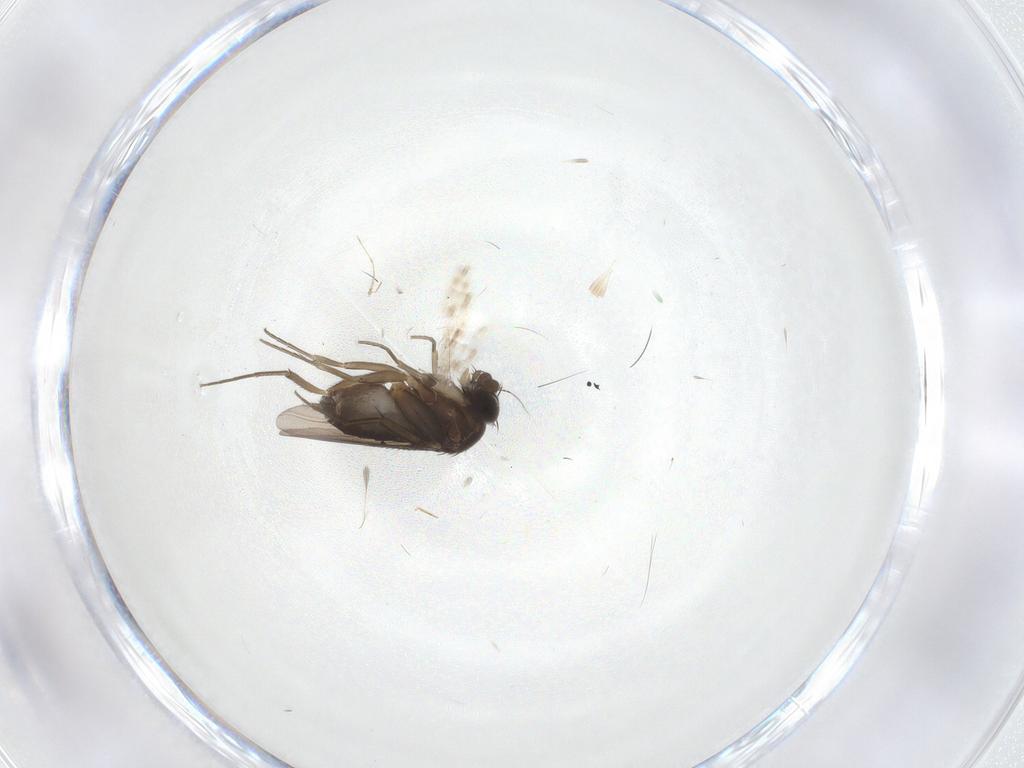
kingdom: Animalia
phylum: Arthropoda
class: Insecta
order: Diptera
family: Phoridae
